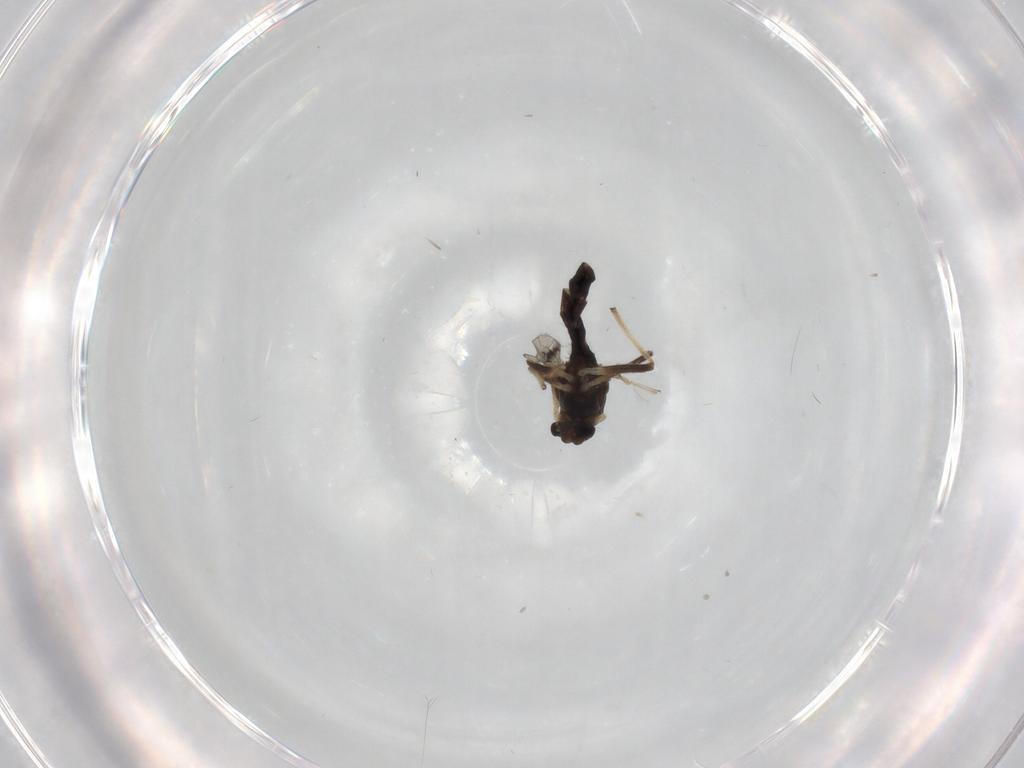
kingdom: Animalia
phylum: Arthropoda
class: Insecta
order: Diptera
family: Chironomidae
